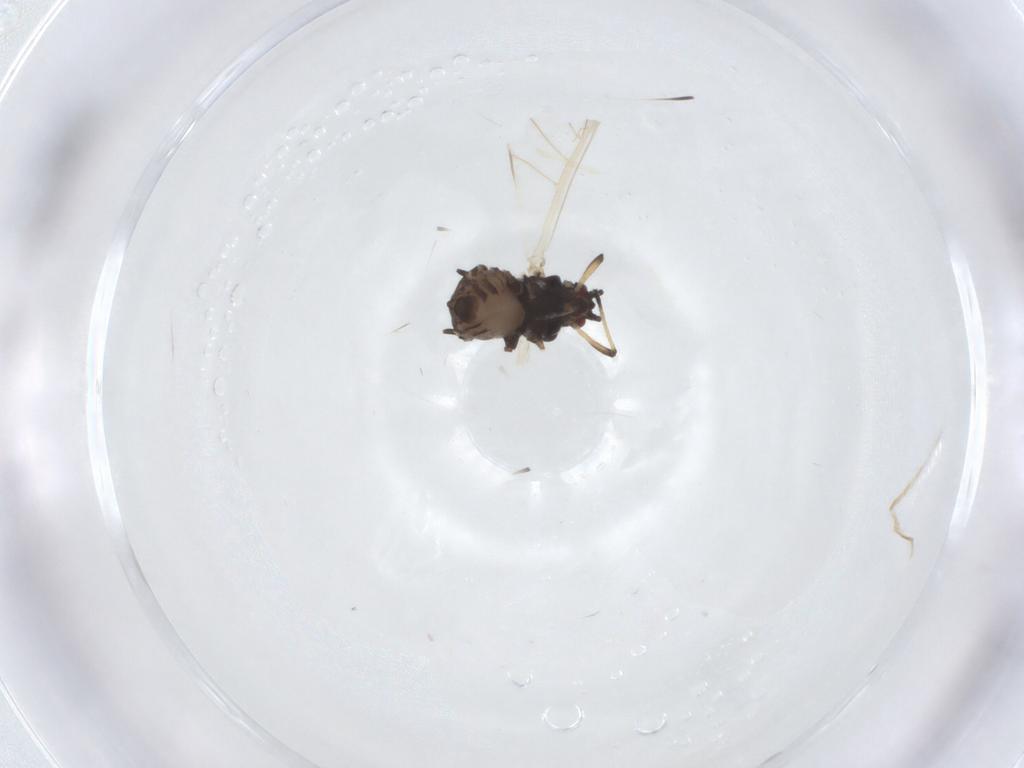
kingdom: Animalia
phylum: Arthropoda
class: Insecta
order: Hemiptera
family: Aphididae
